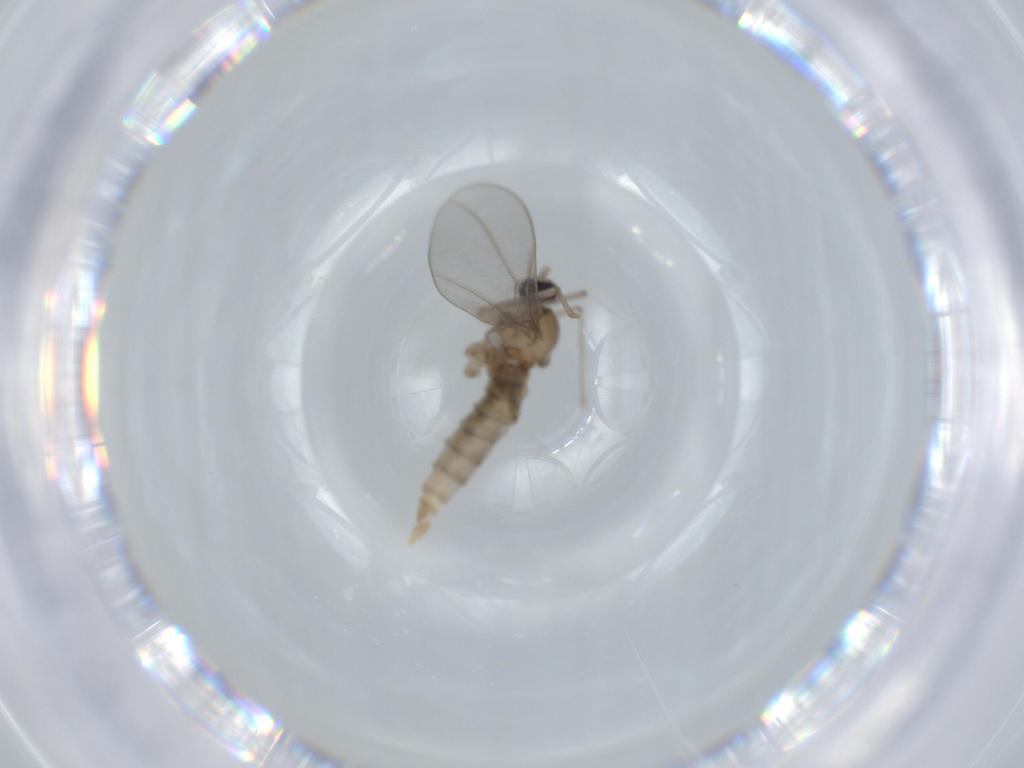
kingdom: Animalia
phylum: Arthropoda
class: Insecta
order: Diptera
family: Cecidomyiidae
